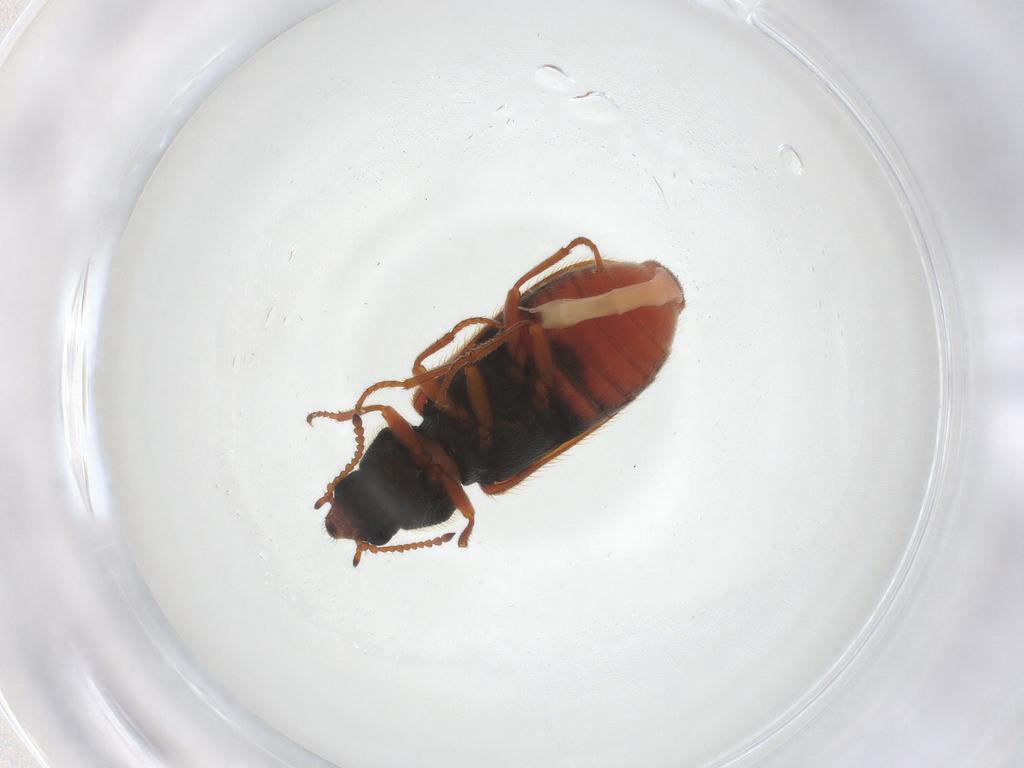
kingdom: Animalia
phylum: Arthropoda
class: Insecta
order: Coleoptera
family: Melyridae
